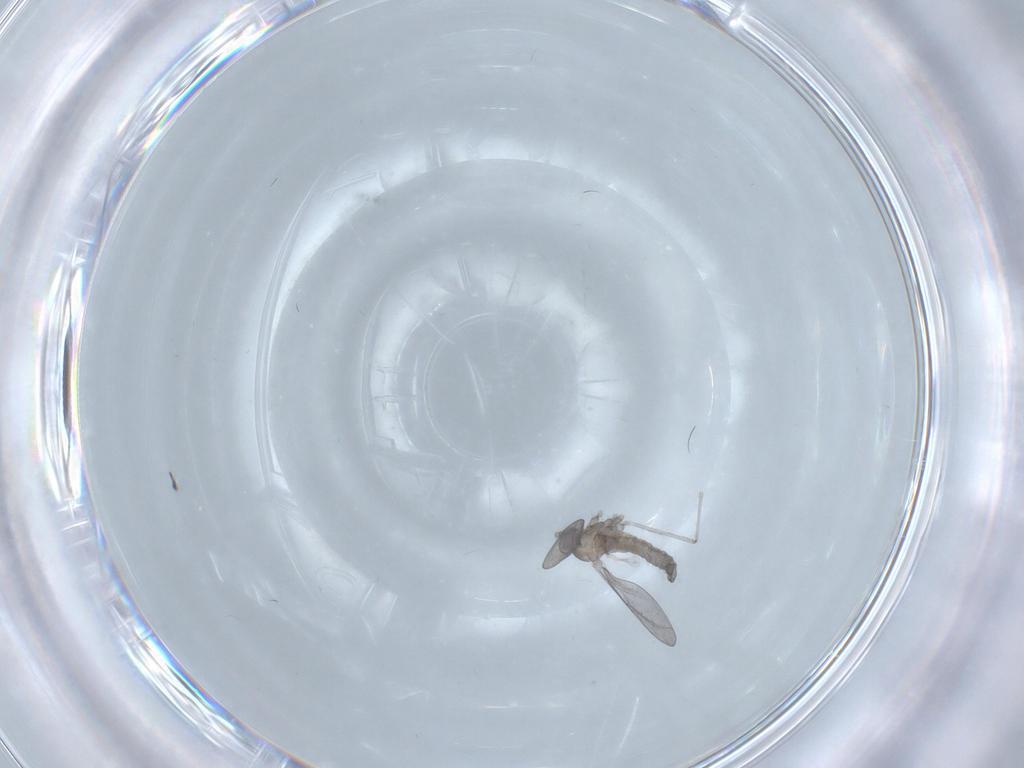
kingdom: Animalia
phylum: Arthropoda
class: Insecta
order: Diptera
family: Cecidomyiidae
